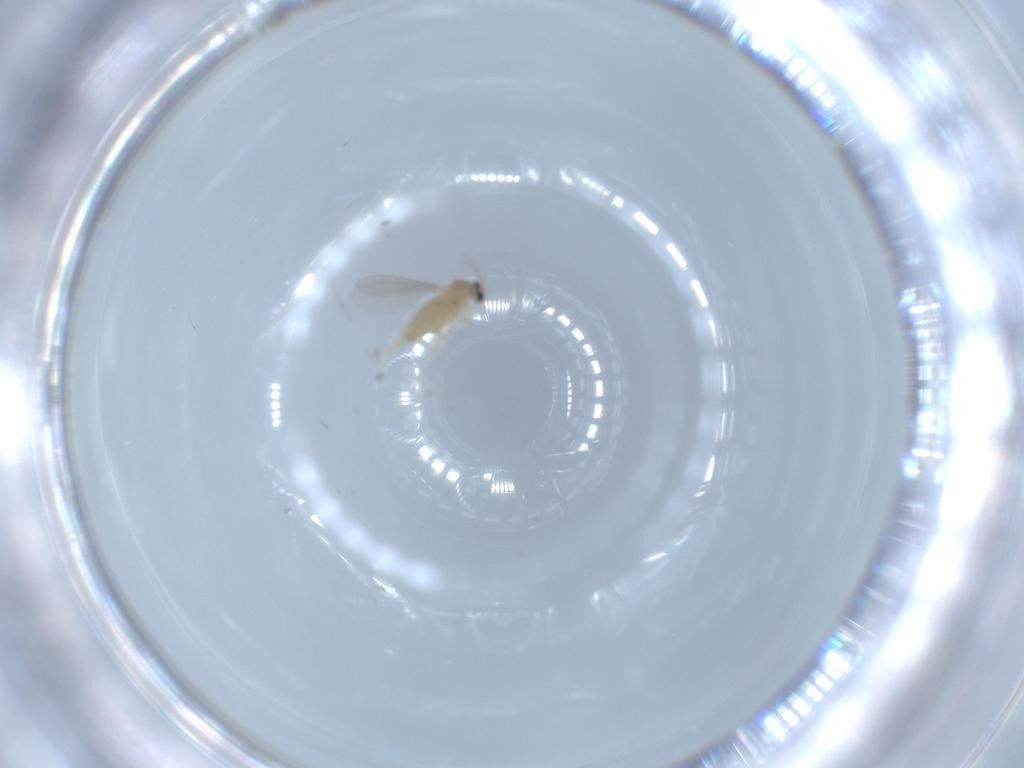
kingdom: Animalia
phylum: Arthropoda
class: Insecta
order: Diptera
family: Cecidomyiidae
